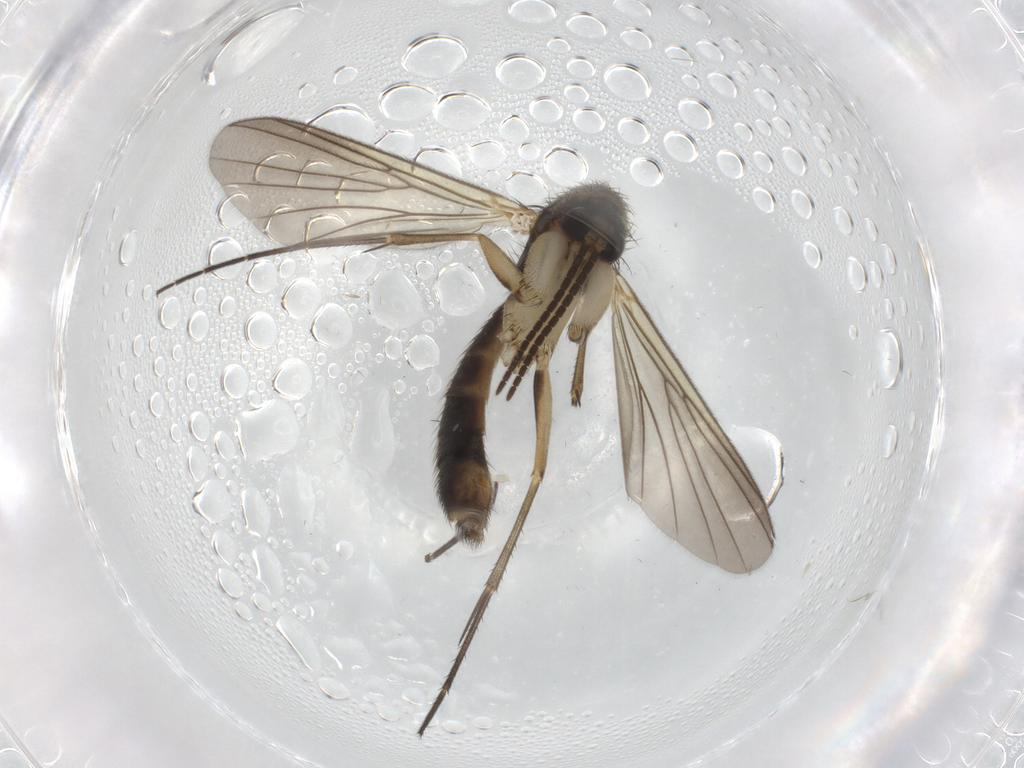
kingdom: Animalia
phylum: Arthropoda
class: Insecta
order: Diptera
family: Mycetophilidae
